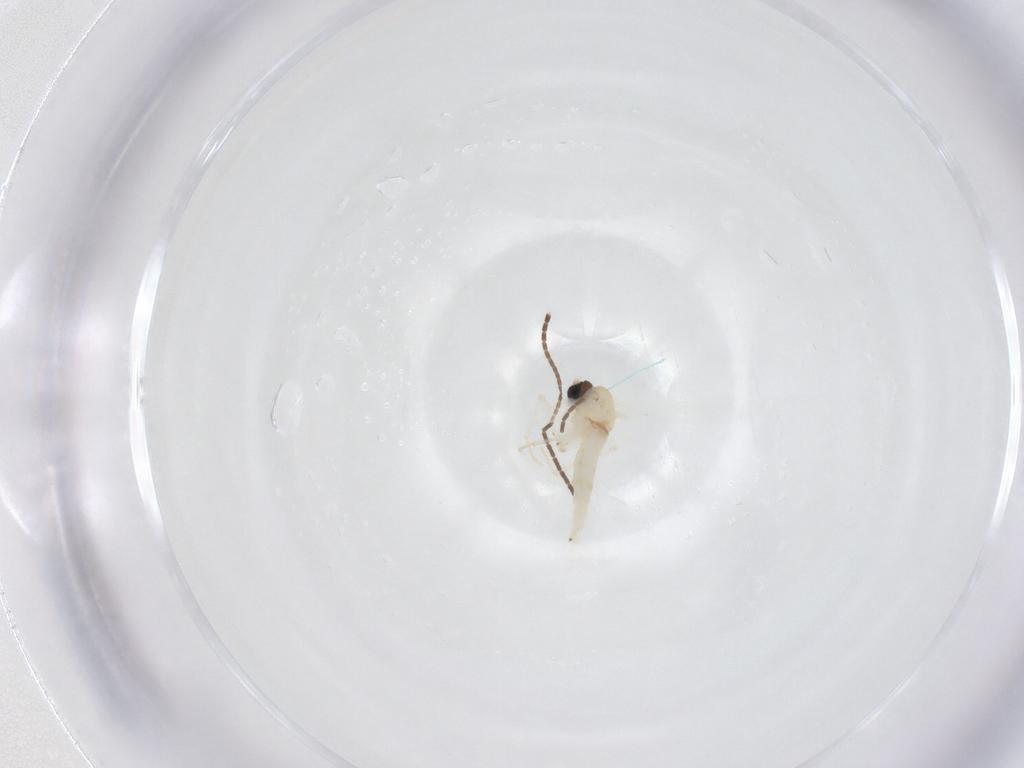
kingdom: Animalia
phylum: Arthropoda
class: Insecta
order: Diptera
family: Sciaridae
